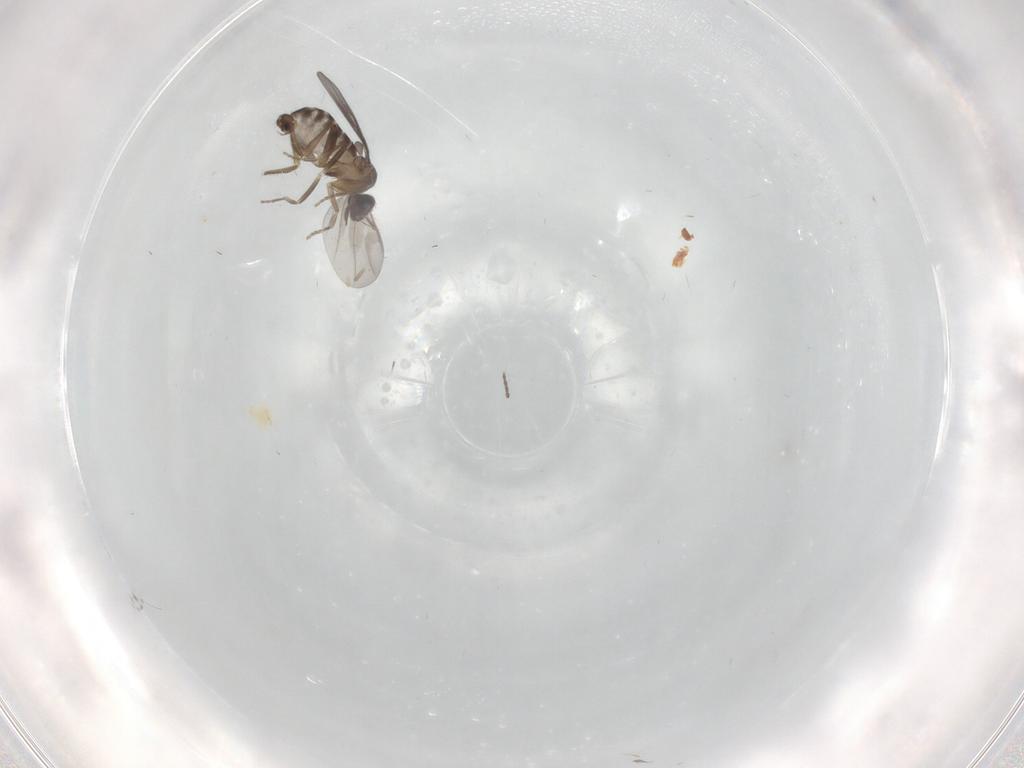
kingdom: Animalia
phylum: Arthropoda
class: Insecta
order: Diptera
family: Cecidomyiidae
